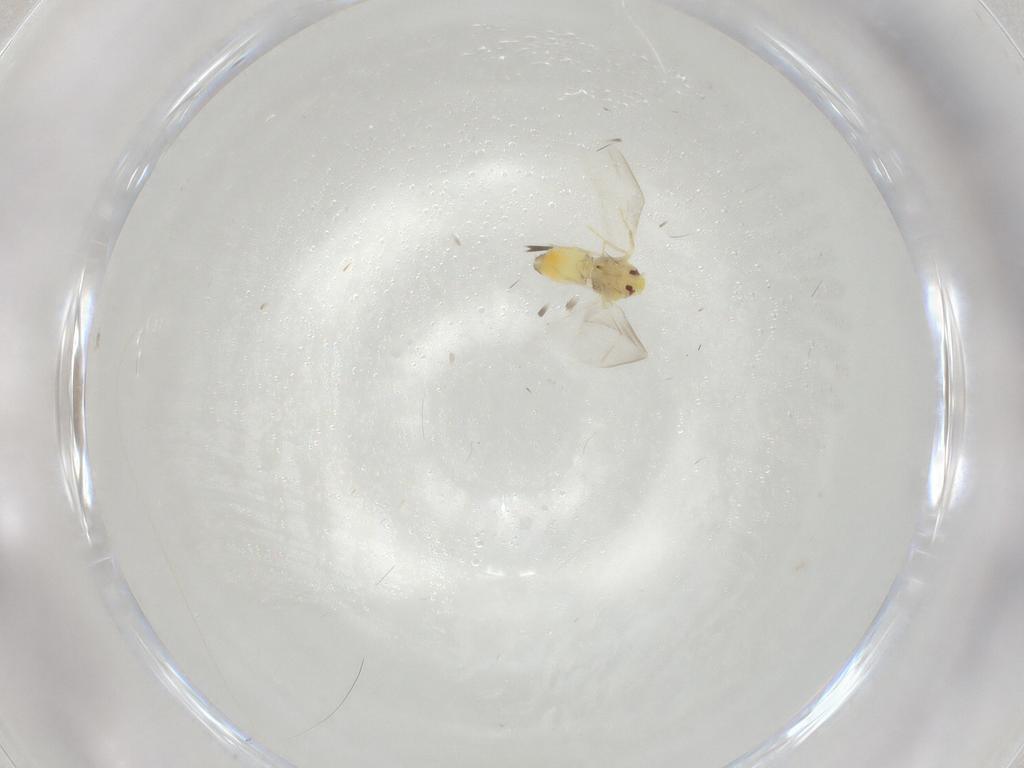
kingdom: Animalia
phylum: Arthropoda
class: Insecta
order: Hemiptera
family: Aleyrodidae
